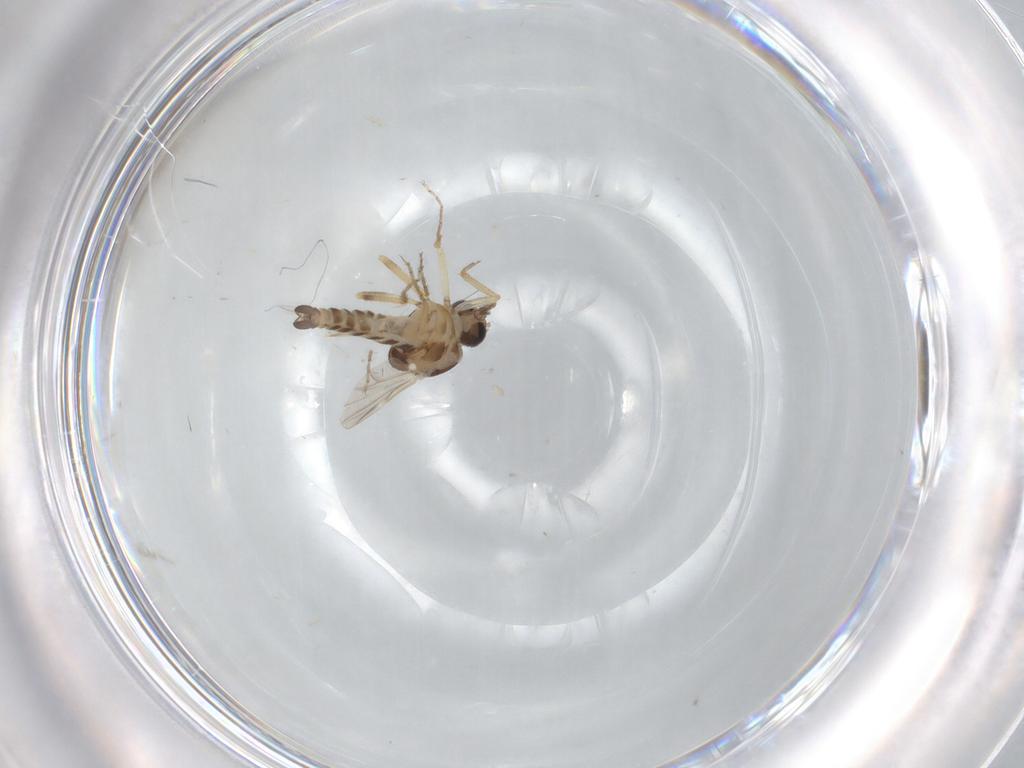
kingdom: Animalia
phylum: Arthropoda
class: Insecta
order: Diptera
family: Ceratopogonidae
